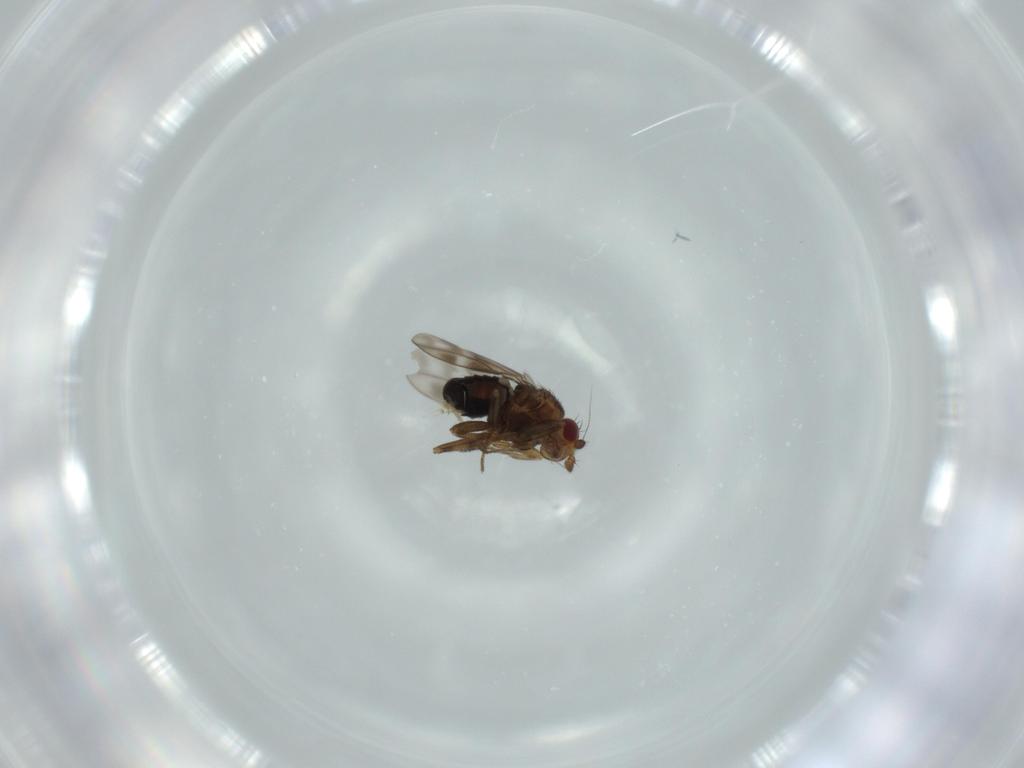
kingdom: Animalia
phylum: Arthropoda
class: Insecta
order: Diptera
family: Sphaeroceridae
